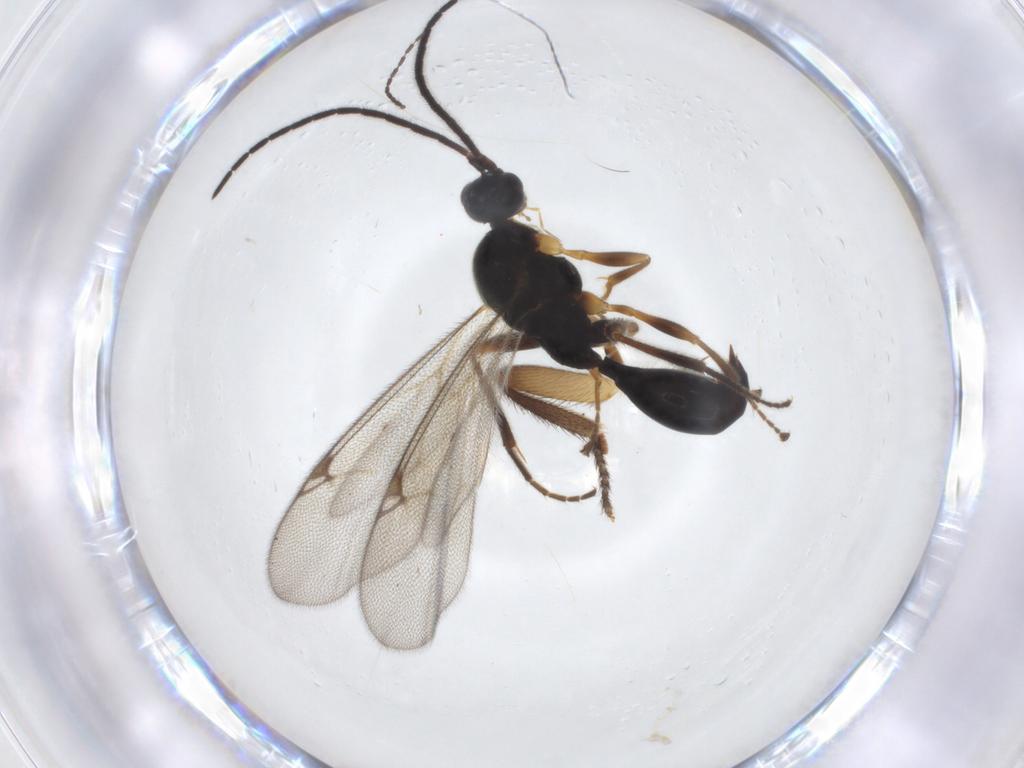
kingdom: Animalia
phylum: Arthropoda
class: Insecta
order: Hymenoptera
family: Proctotrupidae
